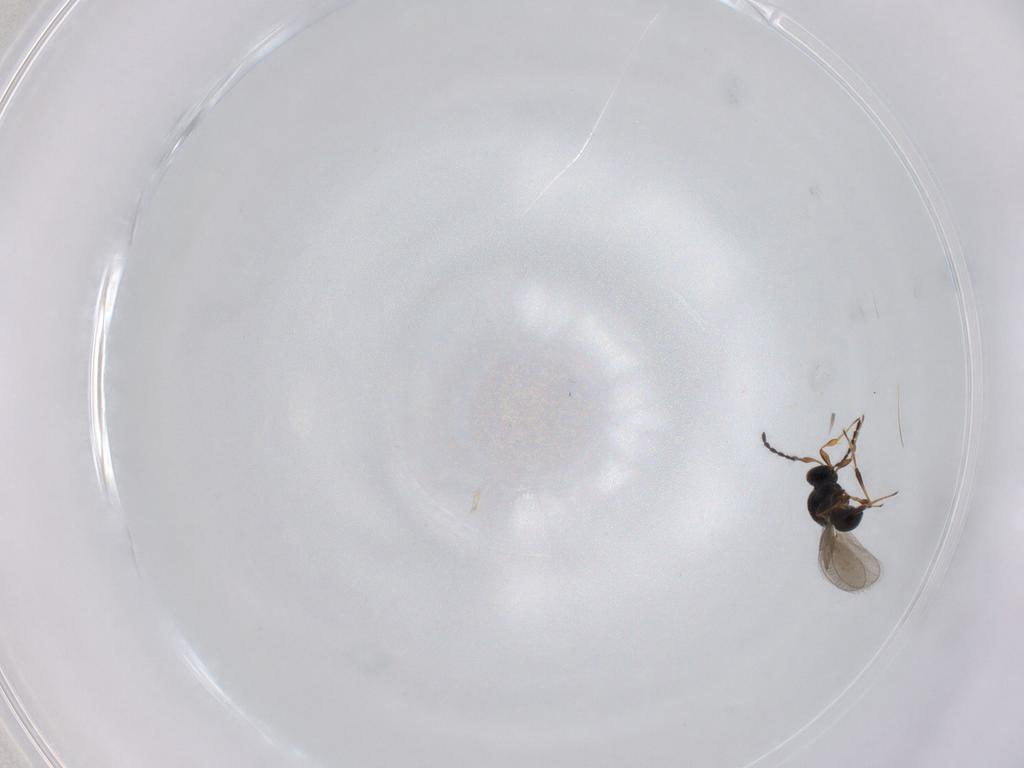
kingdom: Animalia
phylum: Arthropoda
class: Insecta
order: Hymenoptera
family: Platygastridae
